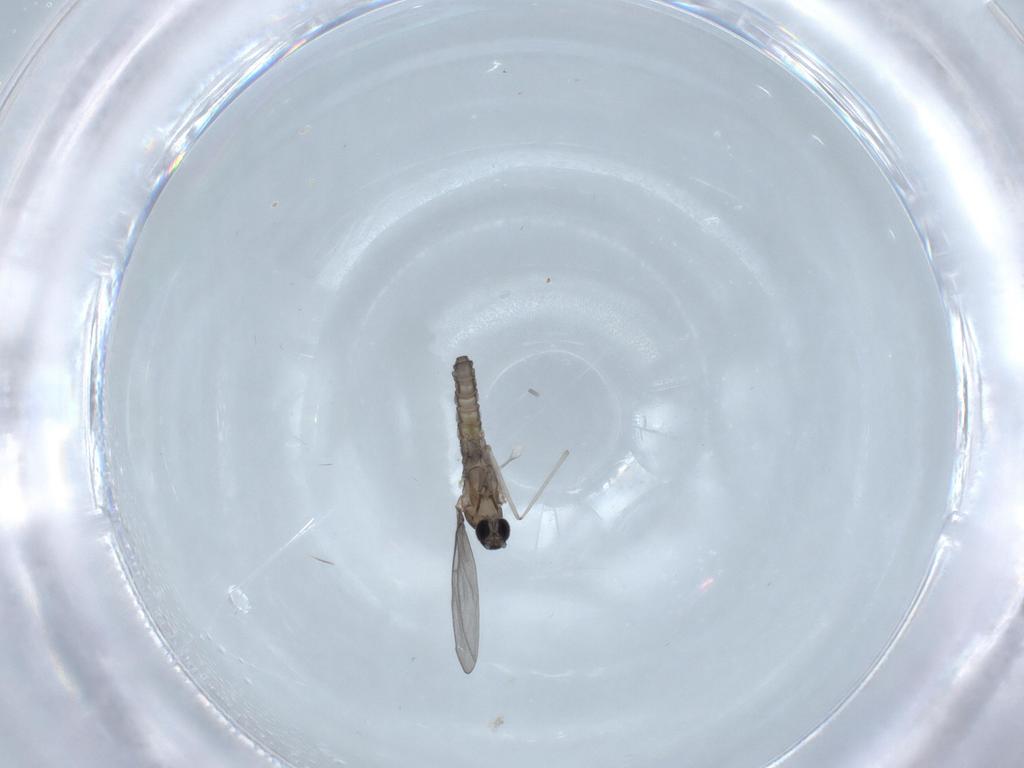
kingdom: Animalia
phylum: Arthropoda
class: Insecta
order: Diptera
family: Cecidomyiidae
